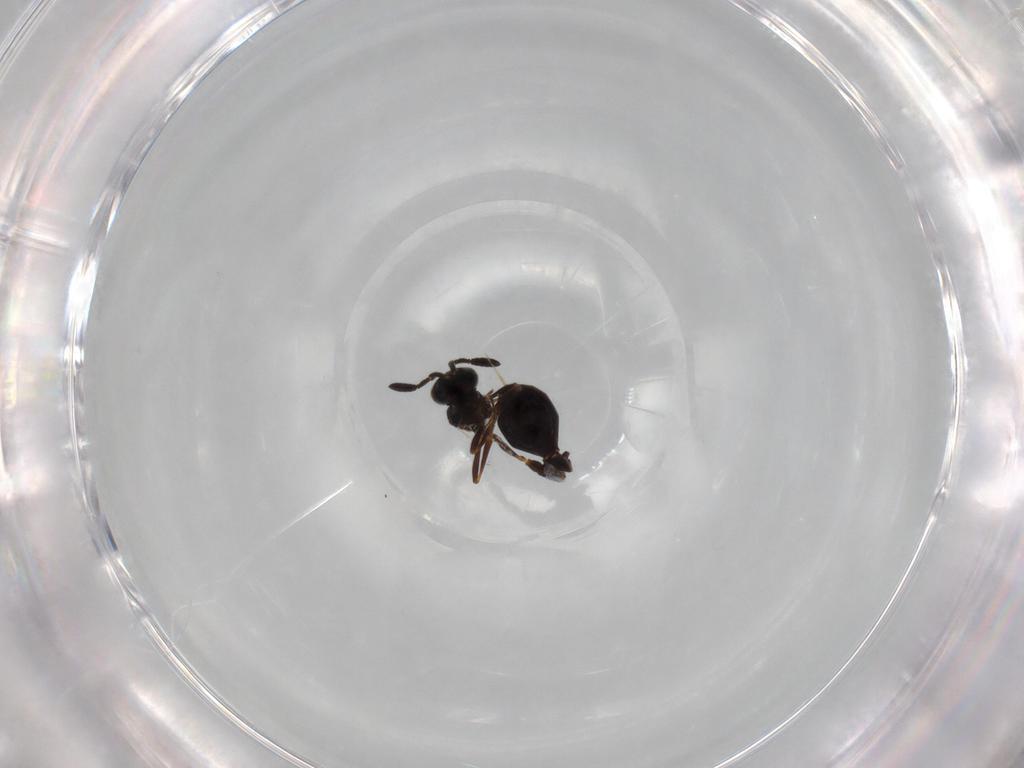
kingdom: Animalia
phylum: Arthropoda
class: Insecta
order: Hymenoptera
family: Scelionidae
